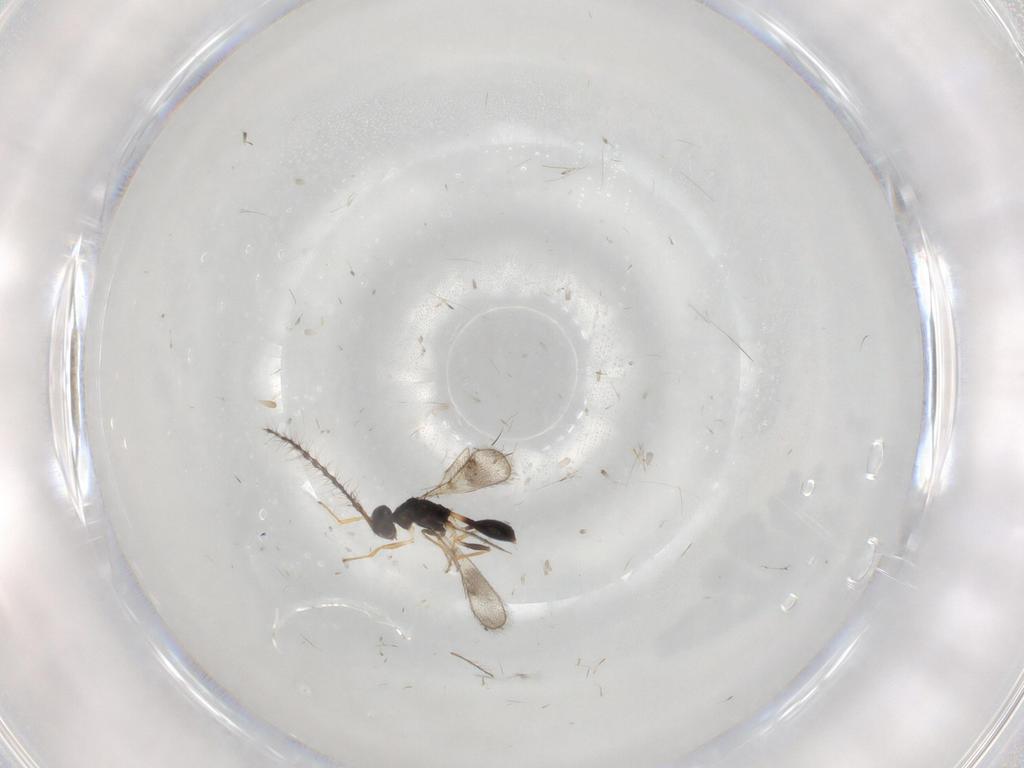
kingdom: Animalia
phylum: Arthropoda
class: Insecta
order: Hymenoptera
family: Diparidae
